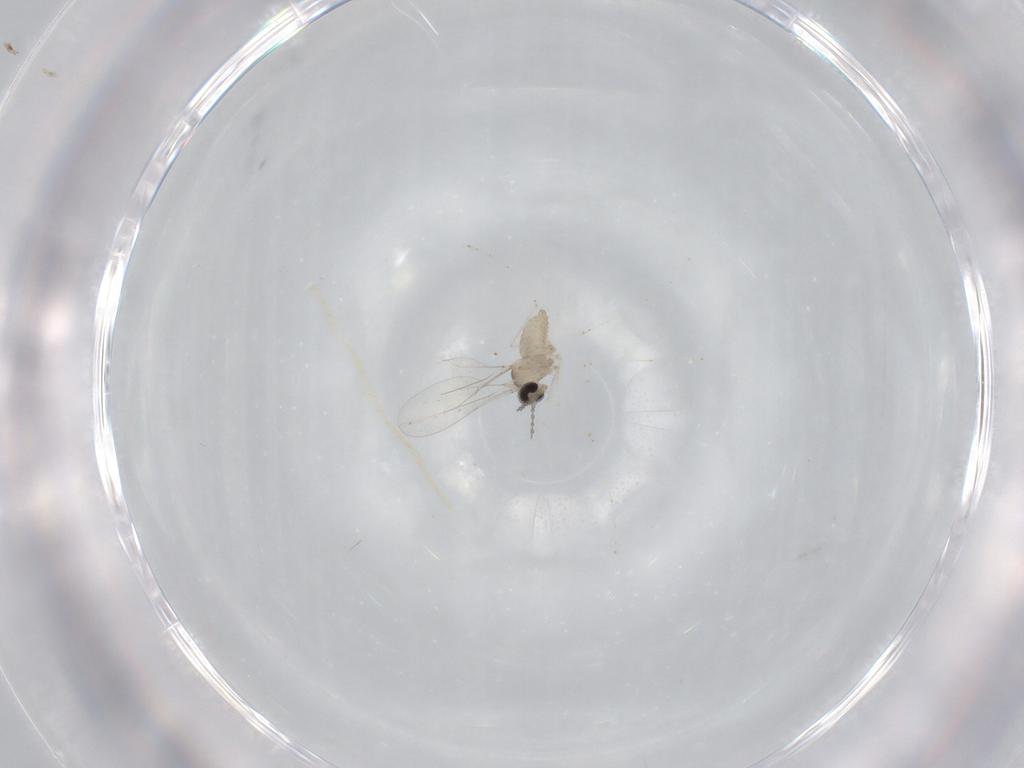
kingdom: Animalia
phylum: Arthropoda
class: Insecta
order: Diptera
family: Cecidomyiidae
